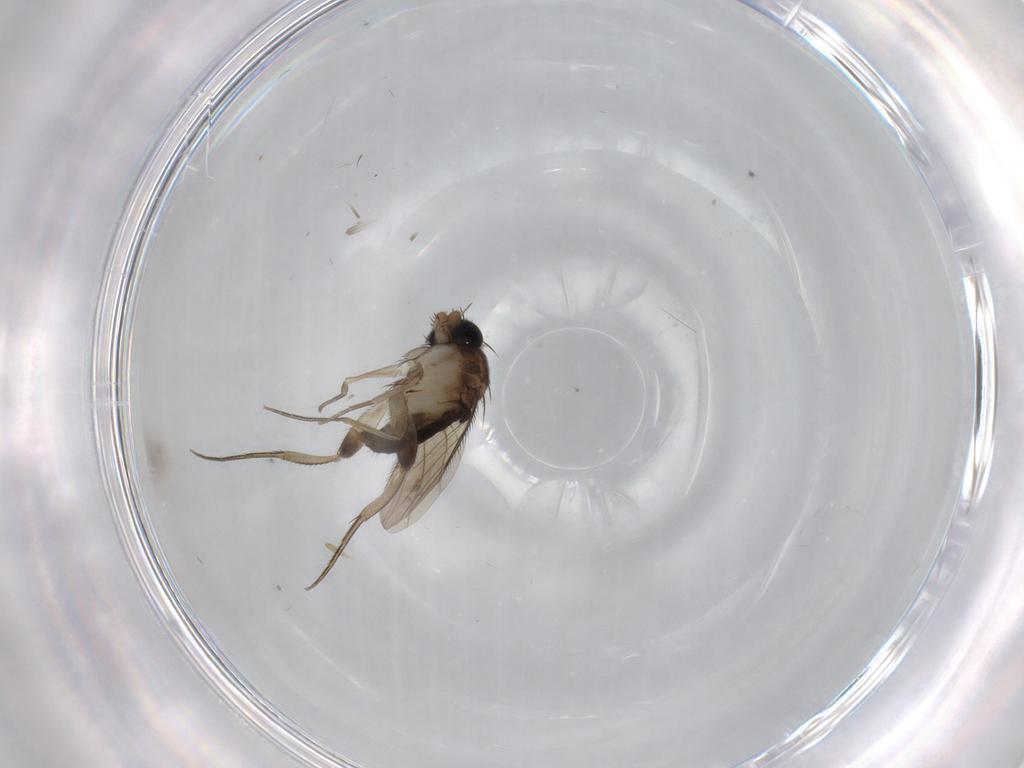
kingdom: Animalia
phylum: Arthropoda
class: Insecta
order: Diptera
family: Phoridae
